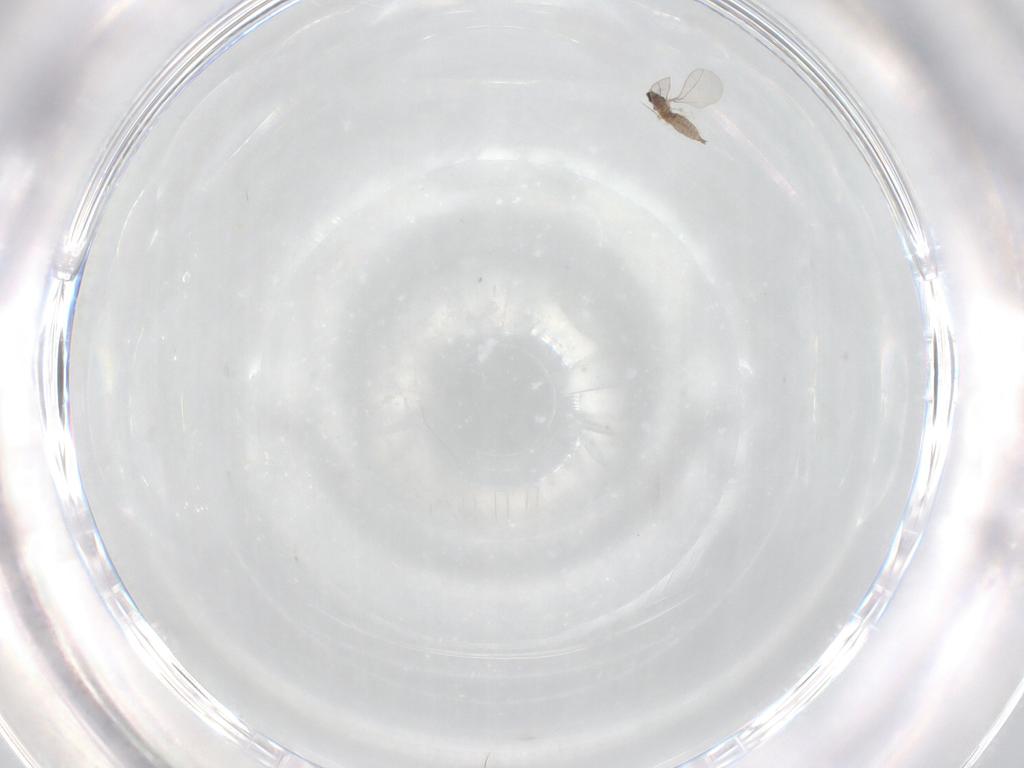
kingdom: Animalia
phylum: Arthropoda
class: Insecta
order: Diptera
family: Cecidomyiidae
